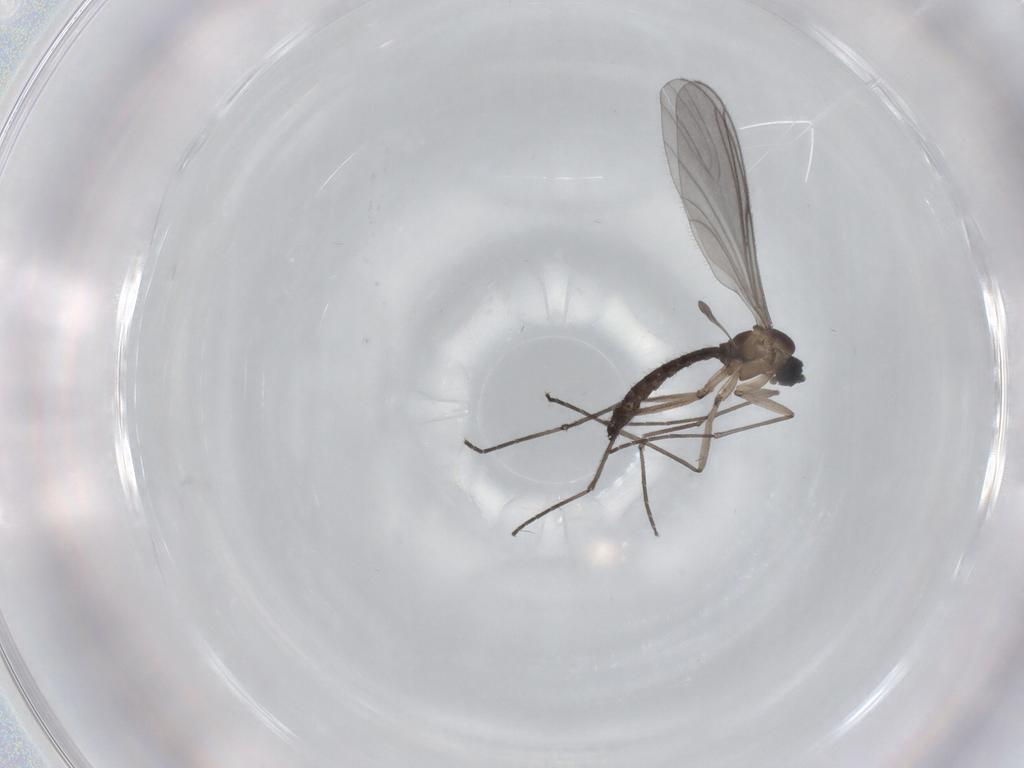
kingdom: Animalia
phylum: Arthropoda
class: Insecta
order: Diptera
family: Sciaridae
